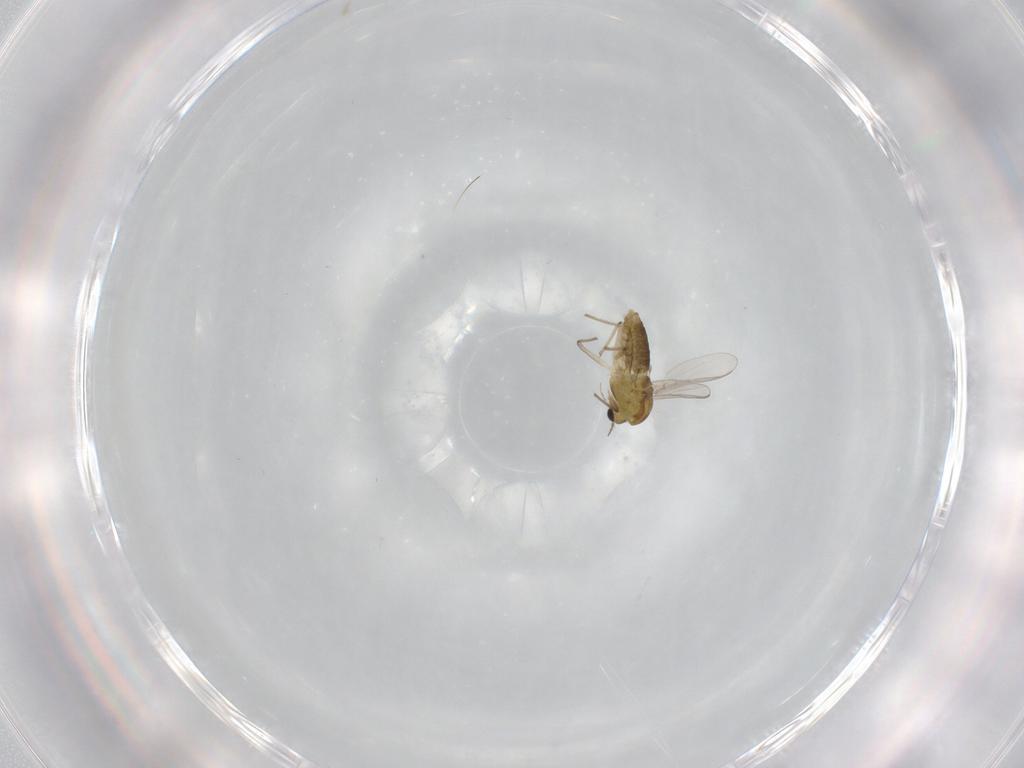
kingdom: Animalia
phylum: Arthropoda
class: Insecta
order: Diptera
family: Chironomidae
